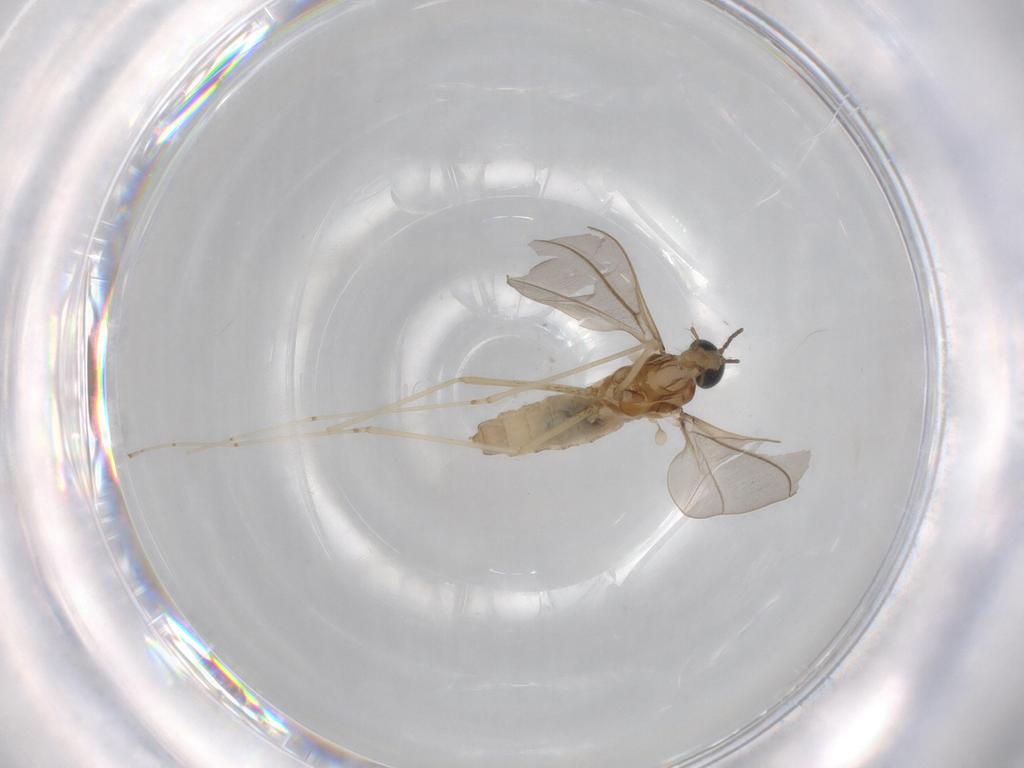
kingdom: Animalia
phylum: Arthropoda
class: Insecta
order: Diptera
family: Cecidomyiidae
